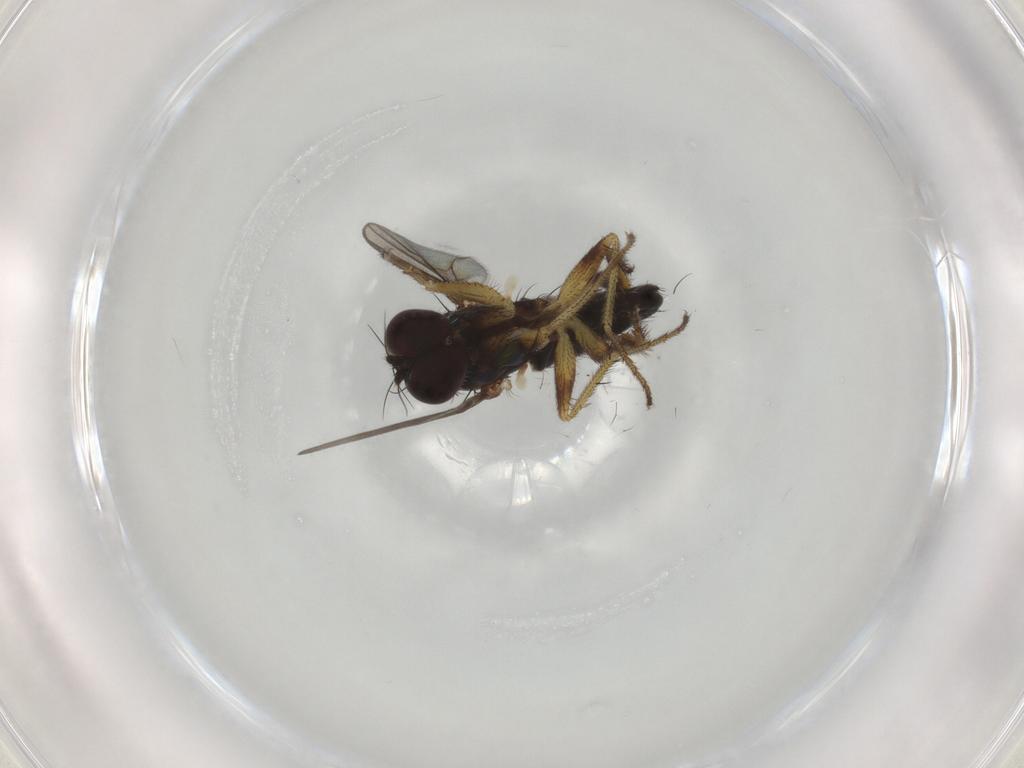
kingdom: Animalia
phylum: Arthropoda
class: Insecta
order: Diptera
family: Dolichopodidae
